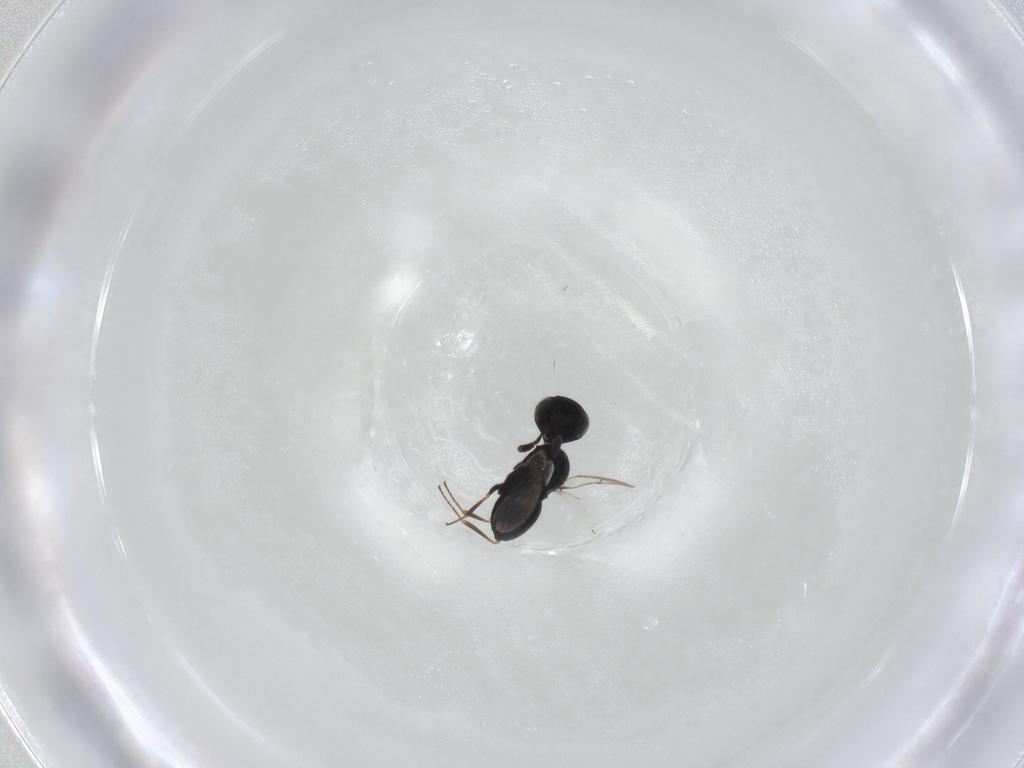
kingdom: Animalia
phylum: Arthropoda
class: Insecta
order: Hymenoptera
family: Scelionidae
